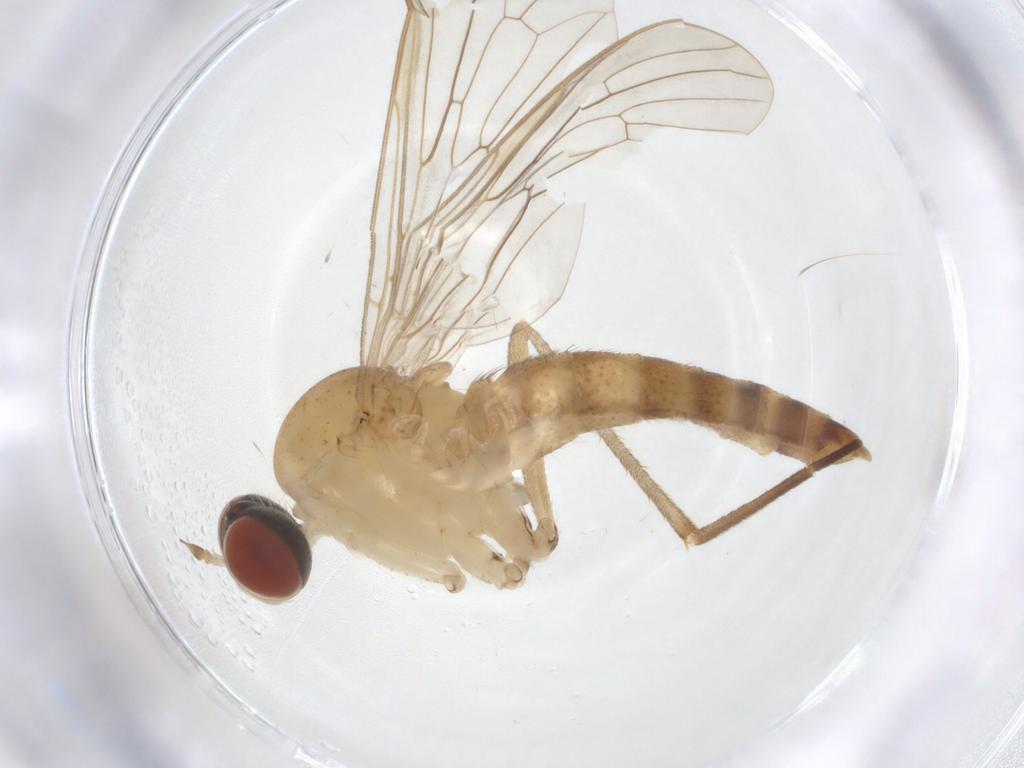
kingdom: Animalia
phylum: Arthropoda
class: Insecta
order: Diptera
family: Apsilocephalidae
